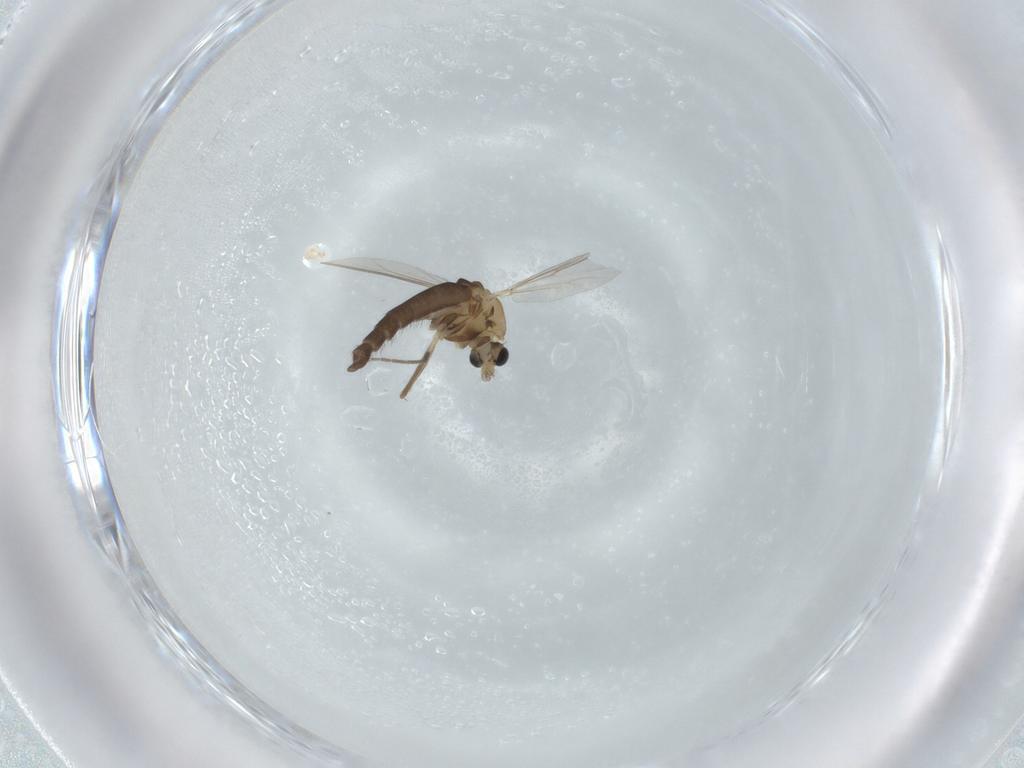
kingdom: Animalia
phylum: Arthropoda
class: Insecta
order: Diptera
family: Chironomidae
